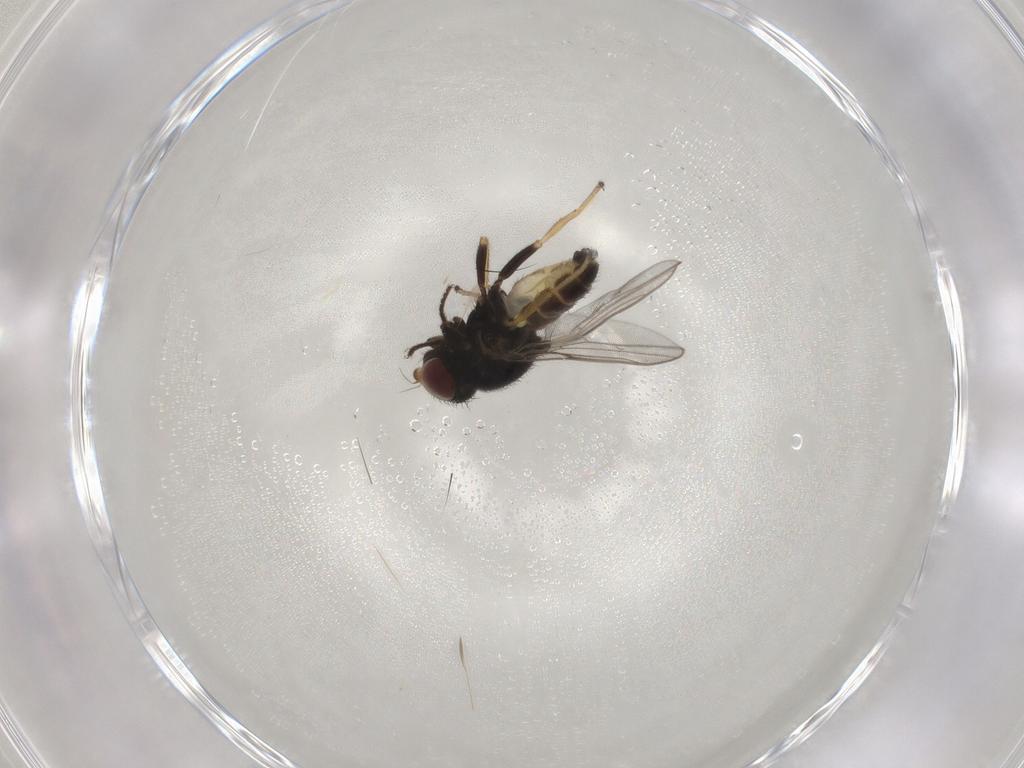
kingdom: Animalia
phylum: Arthropoda
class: Insecta
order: Diptera
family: Chloropidae
